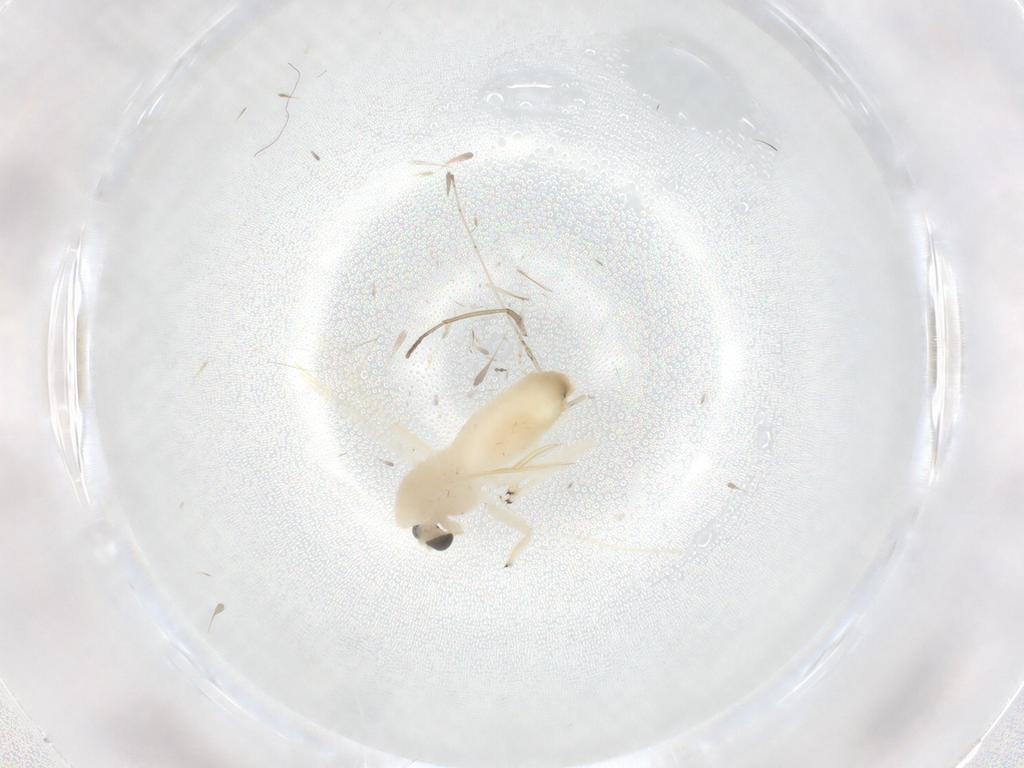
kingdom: Animalia
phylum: Arthropoda
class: Insecta
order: Diptera
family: Chironomidae
